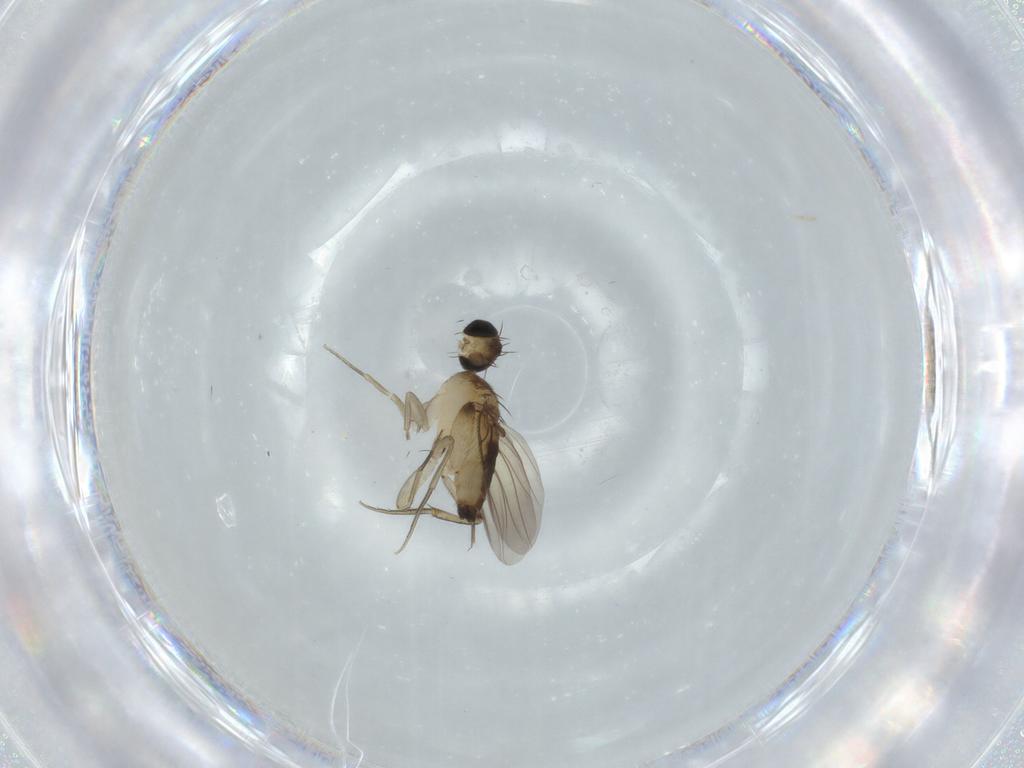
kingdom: Animalia
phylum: Arthropoda
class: Insecta
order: Diptera
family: Phoridae
